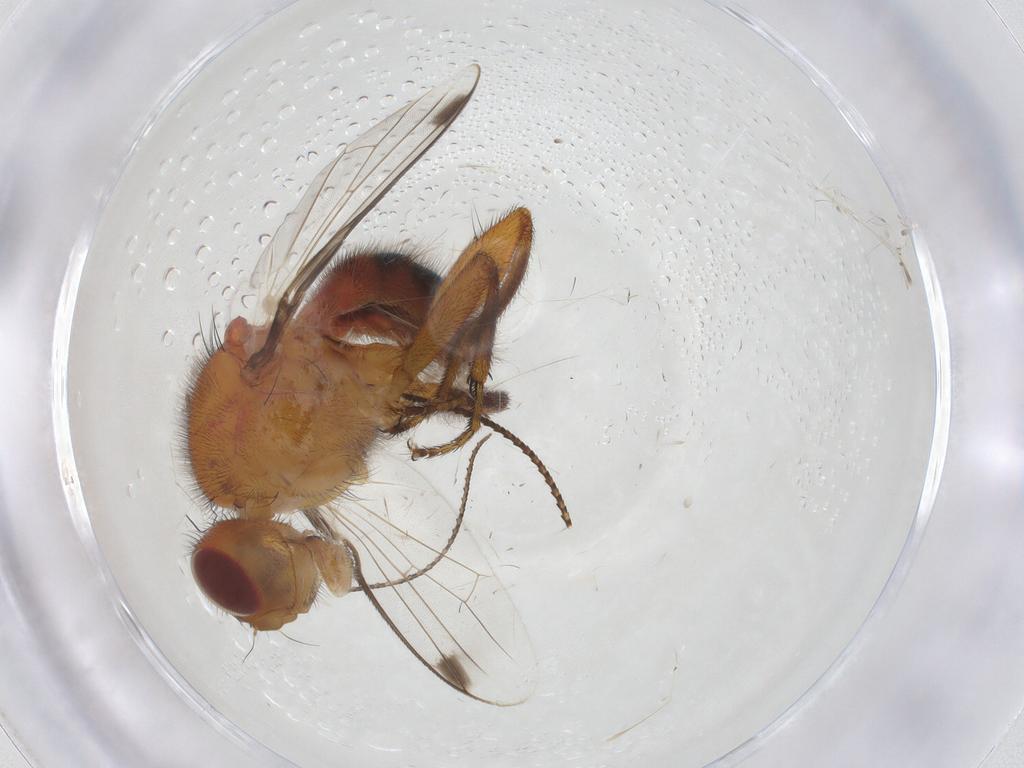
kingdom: Animalia
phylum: Arthropoda
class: Insecta
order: Diptera
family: Richardiidae
